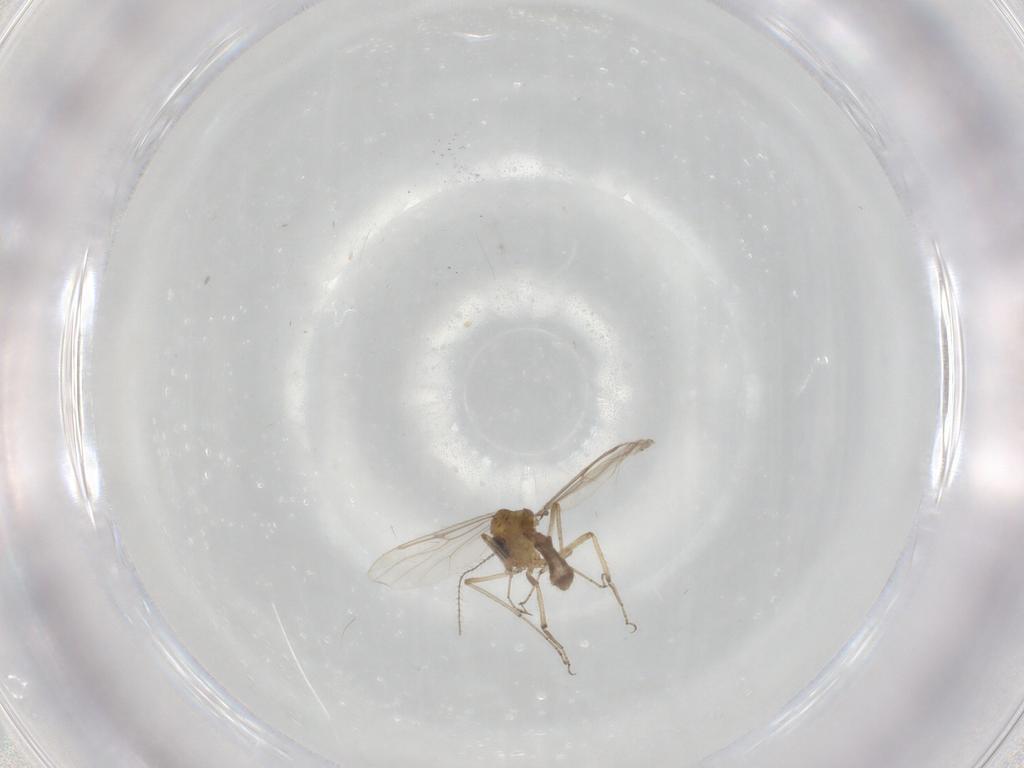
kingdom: Animalia
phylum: Arthropoda
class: Insecta
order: Diptera
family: Ceratopogonidae
